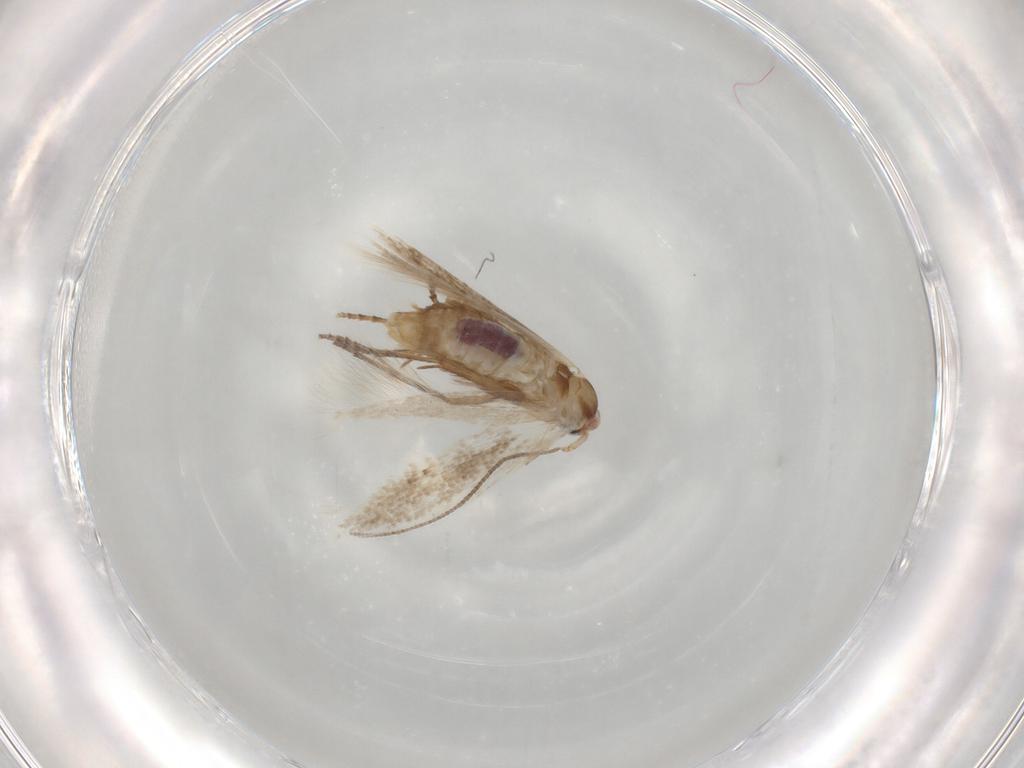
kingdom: Animalia
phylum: Arthropoda
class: Insecta
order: Lepidoptera
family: Bucculatricidae
